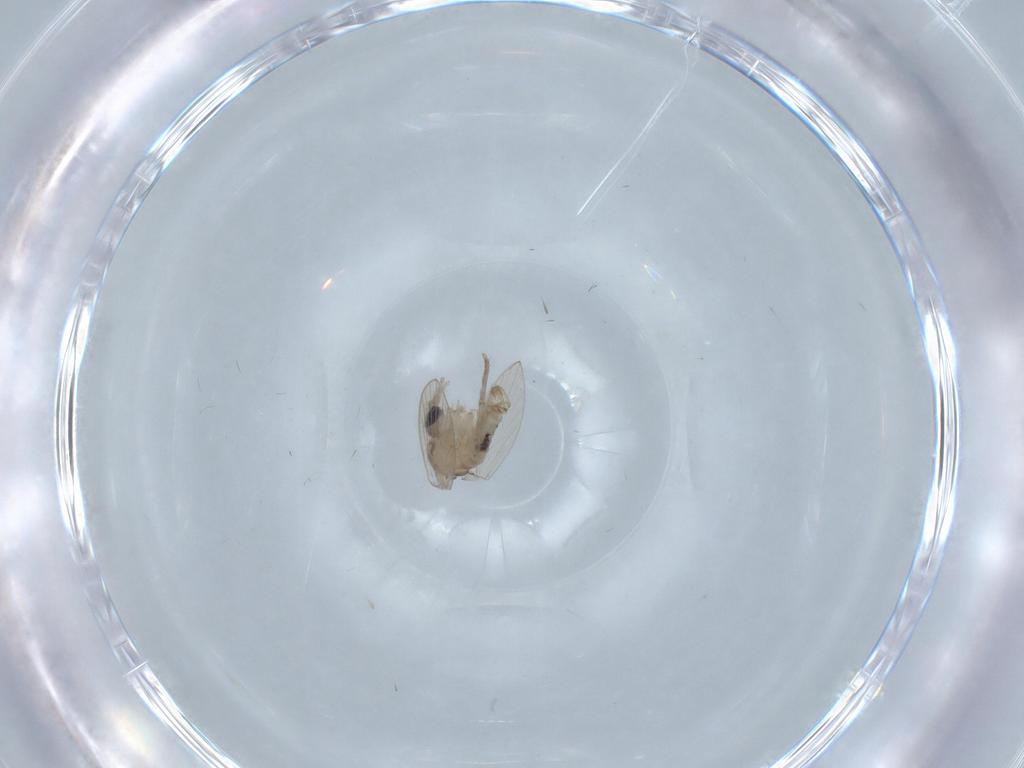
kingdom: Animalia
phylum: Arthropoda
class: Insecta
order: Diptera
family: Psychodidae
